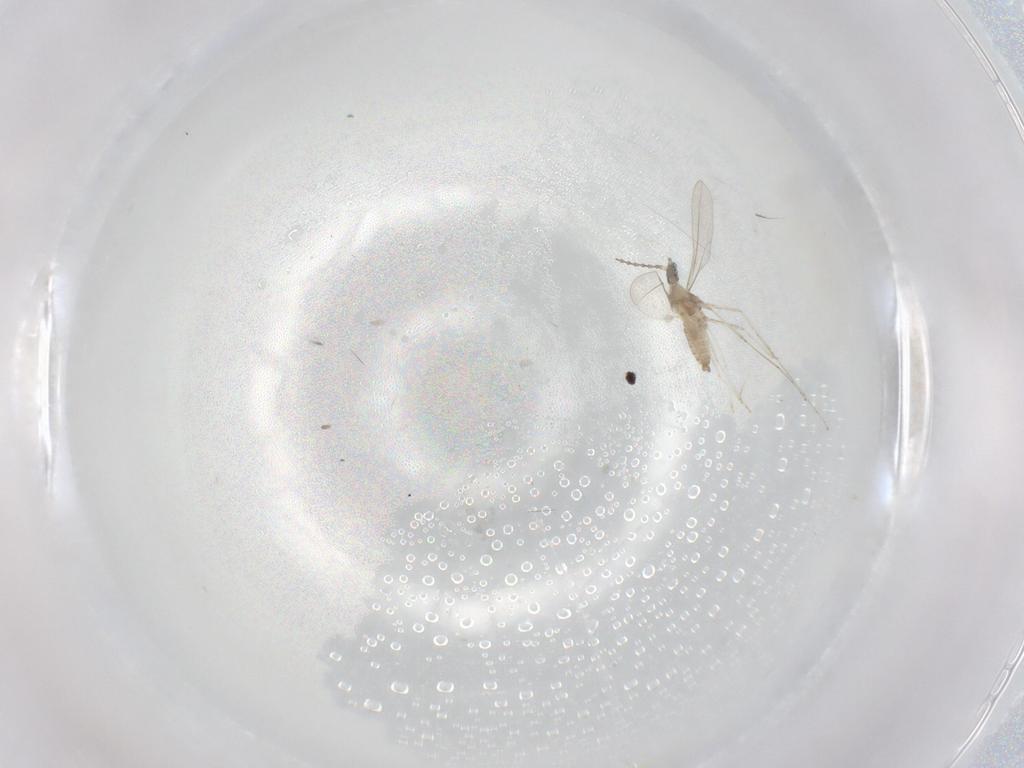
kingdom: Animalia
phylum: Arthropoda
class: Insecta
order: Diptera
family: Cecidomyiidae
